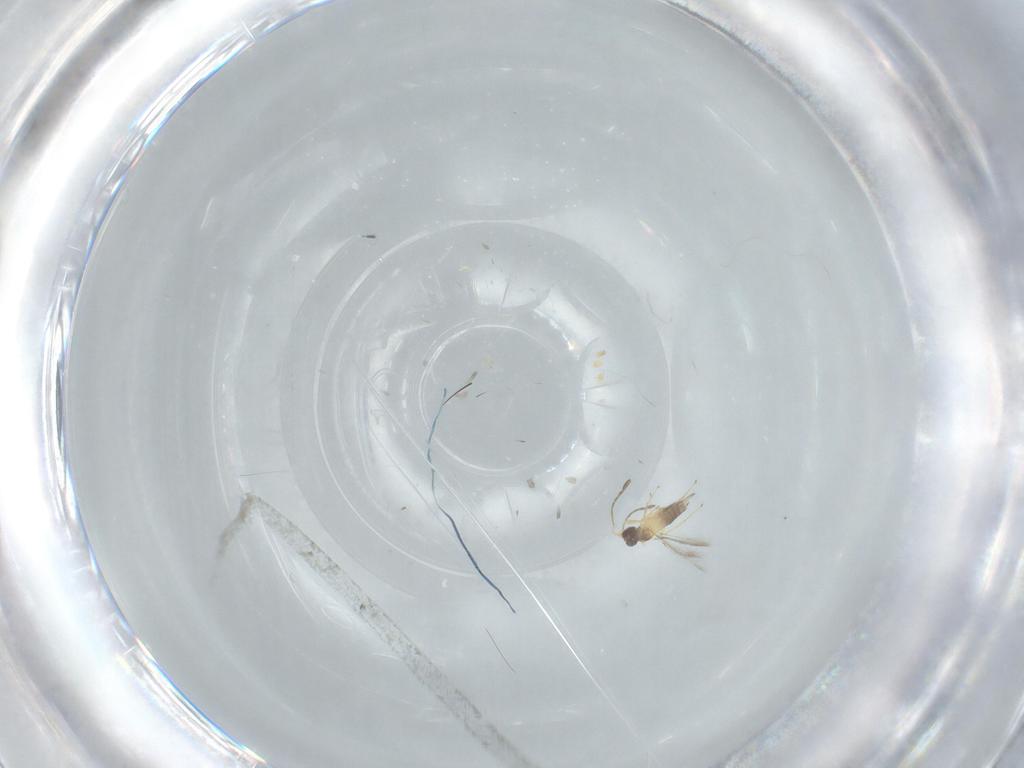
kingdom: Animalia
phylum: Arthropoda
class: Insecta
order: Hymenoptera
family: Mymaridae
